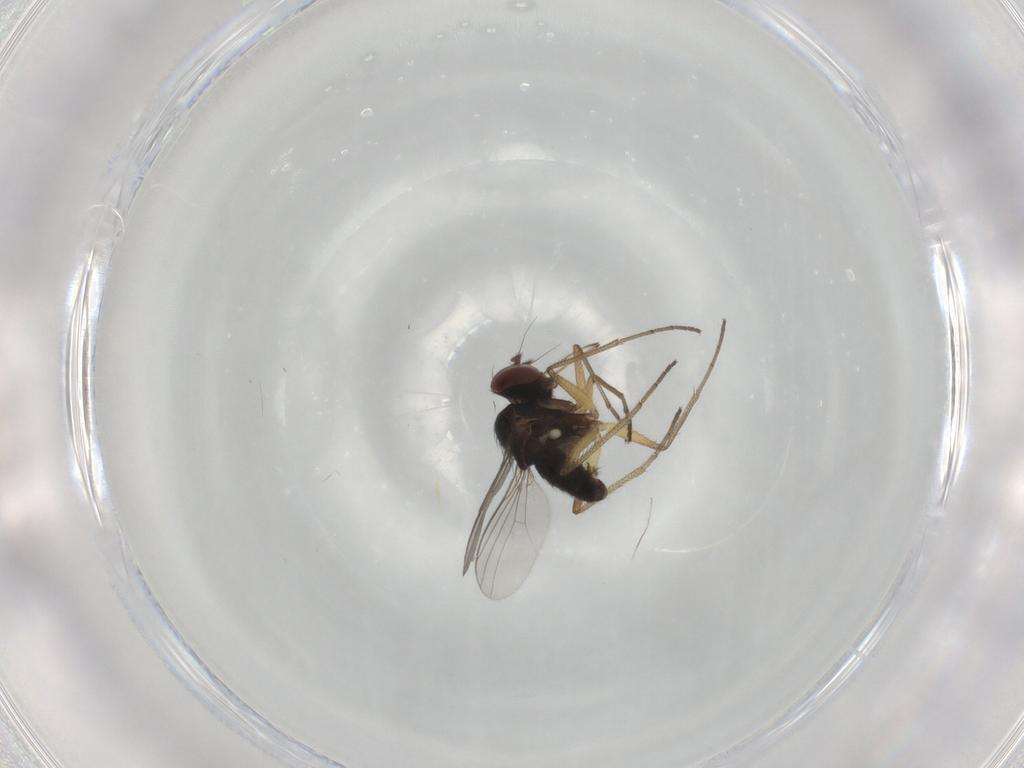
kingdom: Animalia
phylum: Arthropoda
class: Insecta
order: Diptera
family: Dolichopodidae
